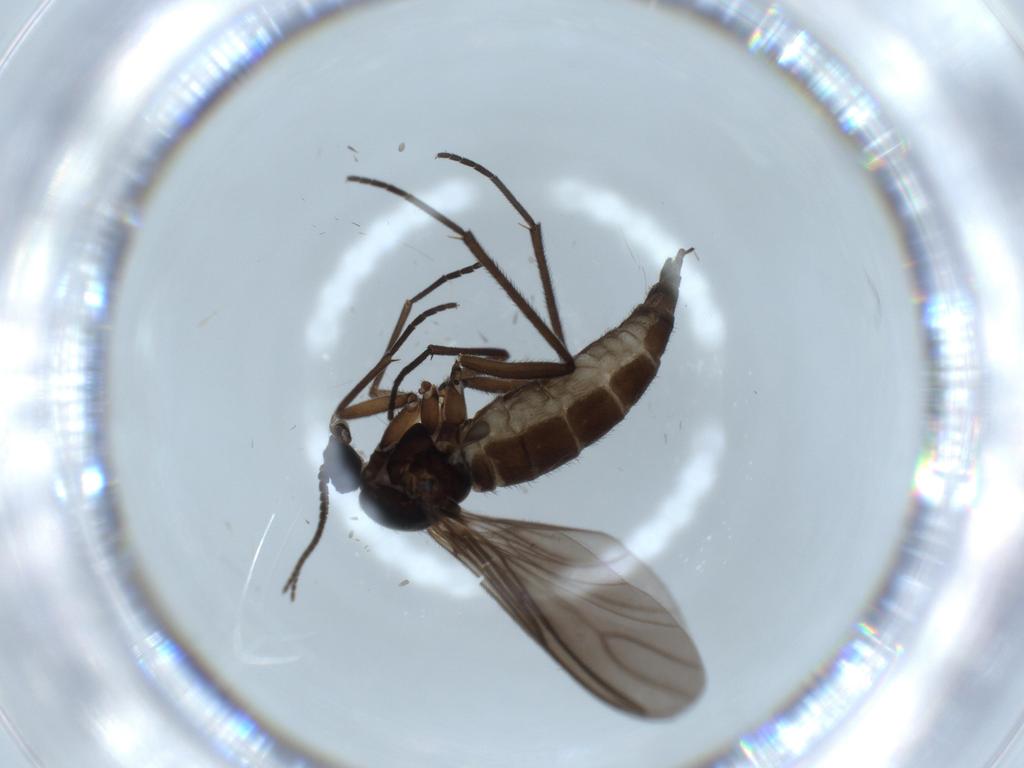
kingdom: Animalia
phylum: Arthropoda
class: Insecta
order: Diptera
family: Sciaridae
